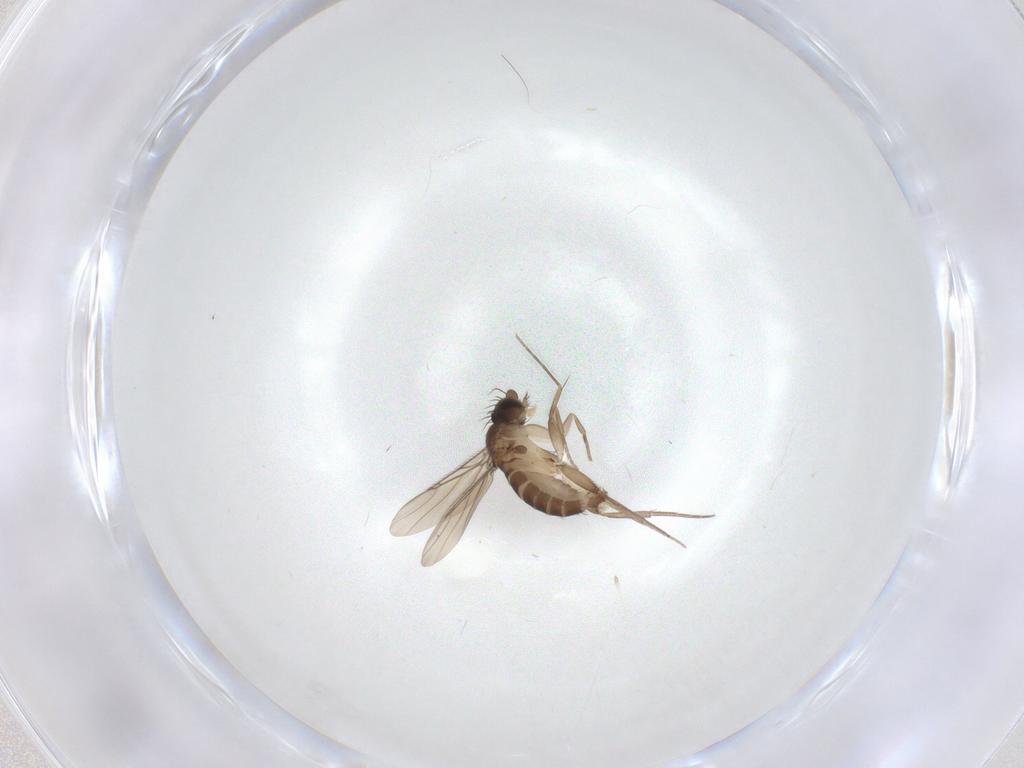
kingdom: Animalia
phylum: Arthropoda
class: Insecta
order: Diptera
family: Phoridae
